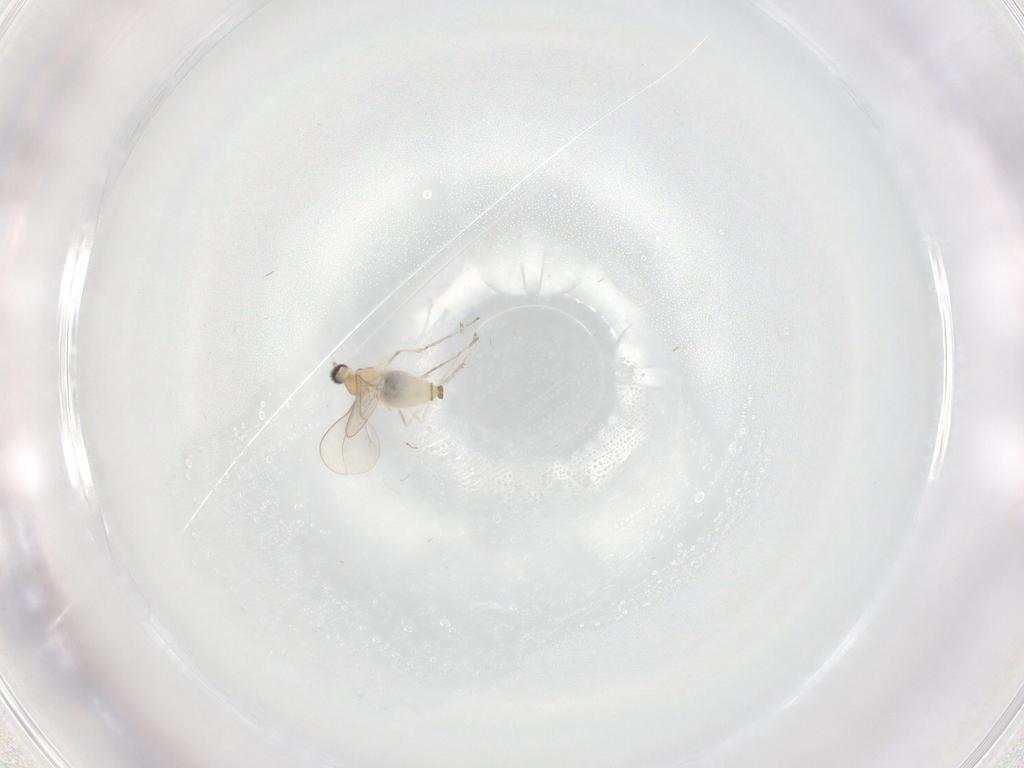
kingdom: Animalia
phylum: Arthropoda
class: Insecta
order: Diptera
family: Cecidomyiidae
